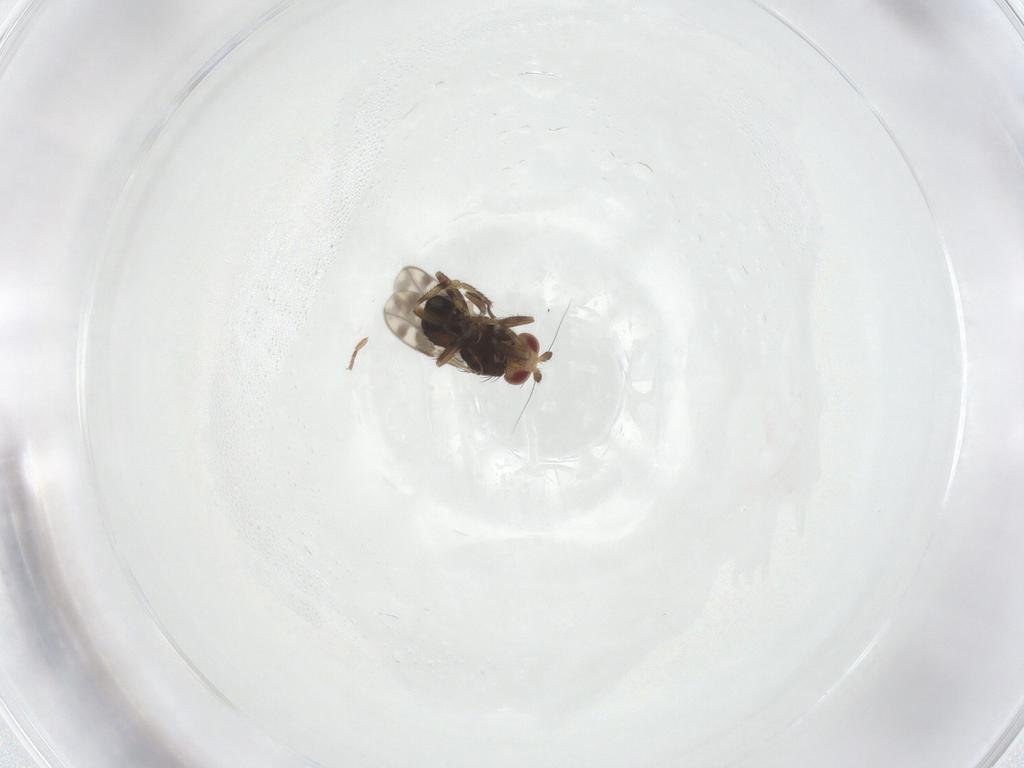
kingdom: Animalia
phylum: Arthropoda
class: Insecta
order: Diptera
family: Sphaeroceridae
